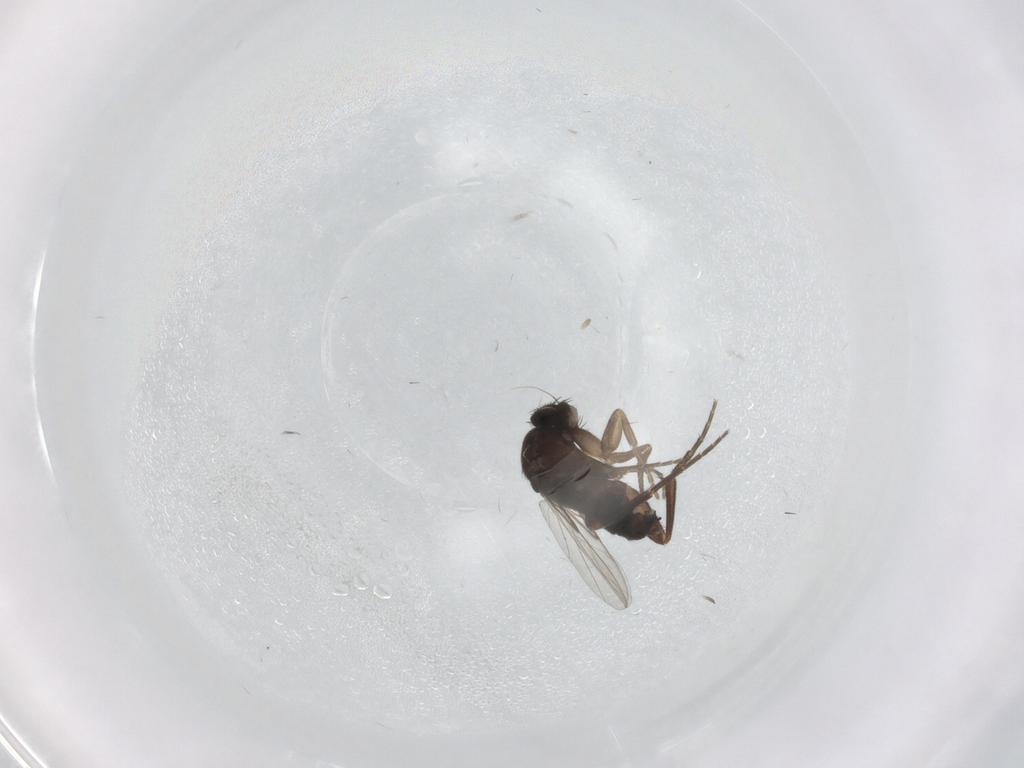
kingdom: Animalia
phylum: Arthropoda
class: Insecta
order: Diptera
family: Phoridae
